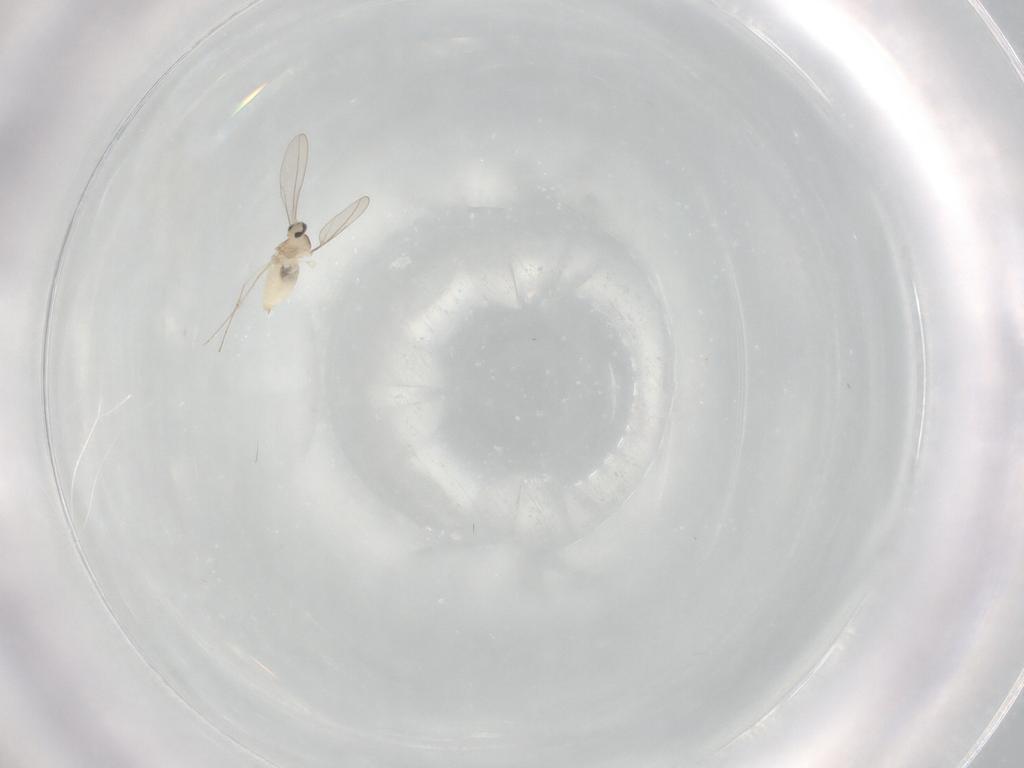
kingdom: Animalia
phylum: Arthropoda
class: Insecta
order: Diptera
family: Cecidomyiidae
